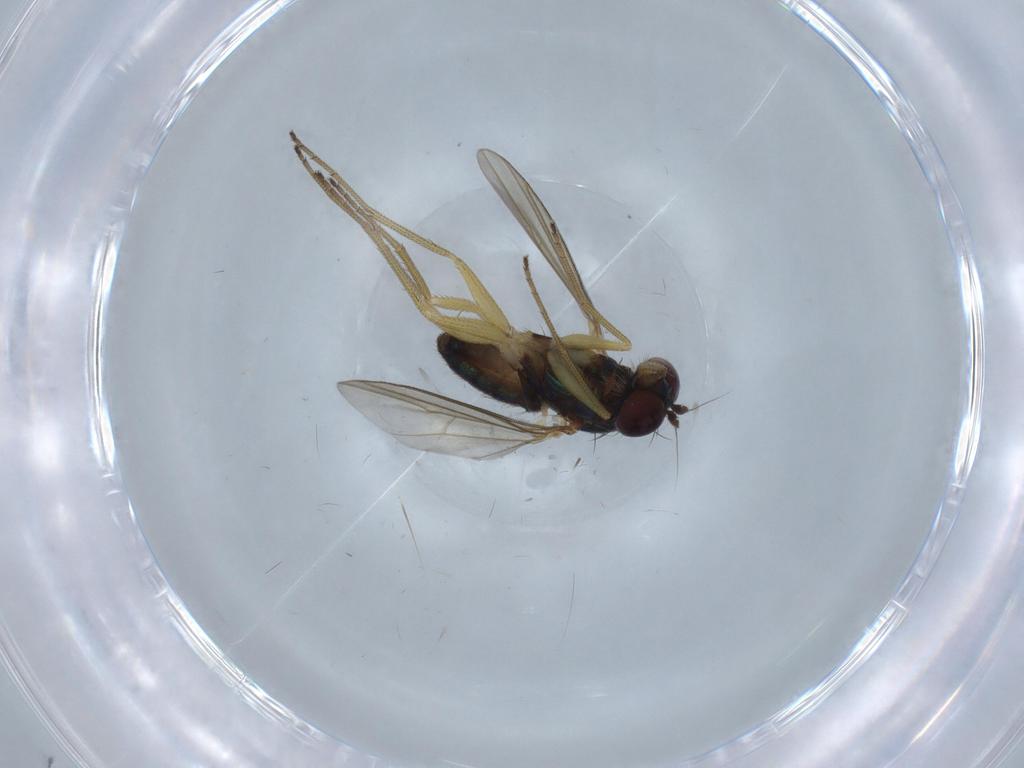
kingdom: Animalia
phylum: Arthropoda
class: Insecta
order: Diptera
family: Dolichopodidae
